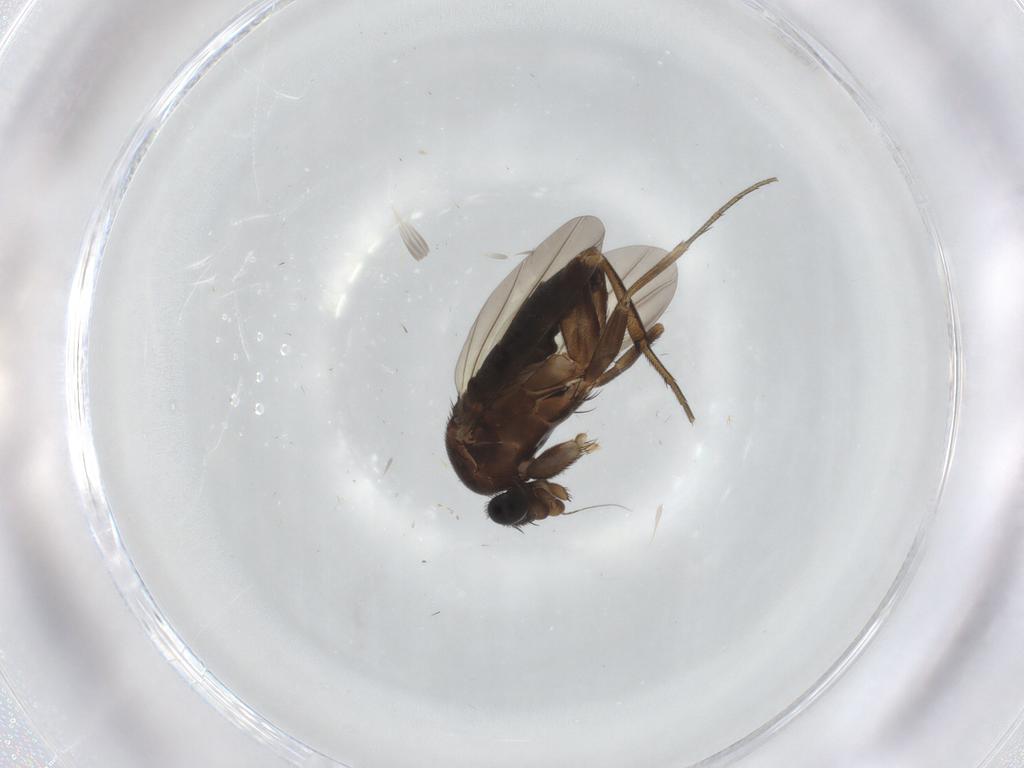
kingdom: Animalia
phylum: Arthropoda
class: Insecta
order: Diptera
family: Phoridae
